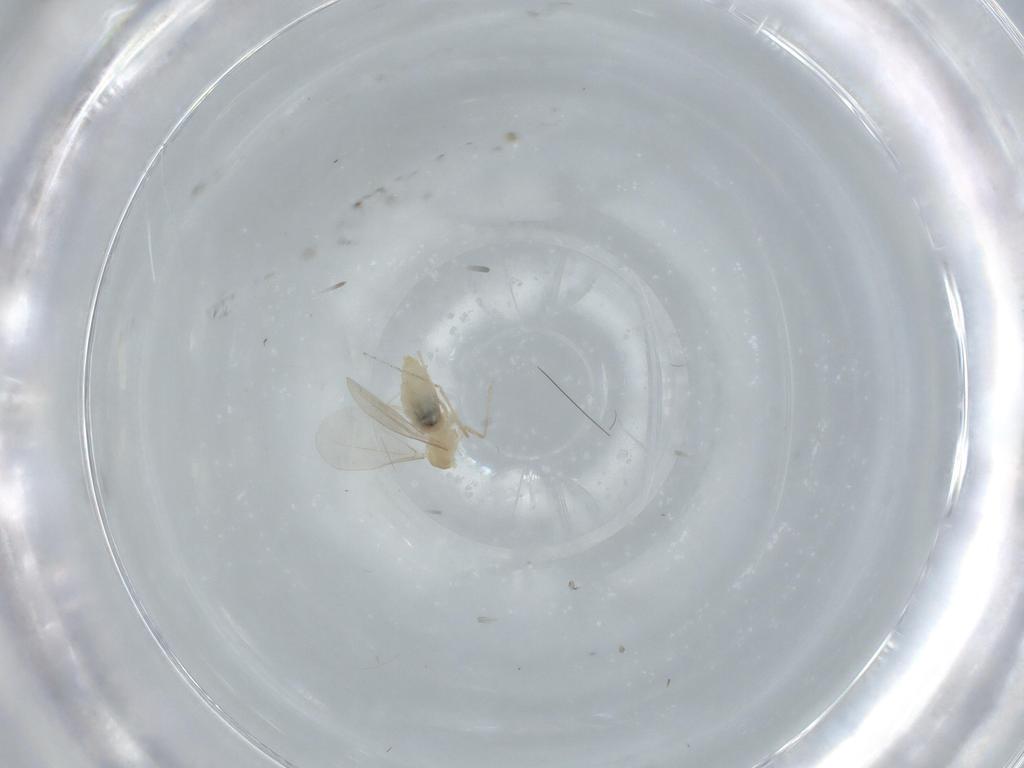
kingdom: Animalia
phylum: Arthropoda
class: Insecta
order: Diptera
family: Cecidomyiidae
